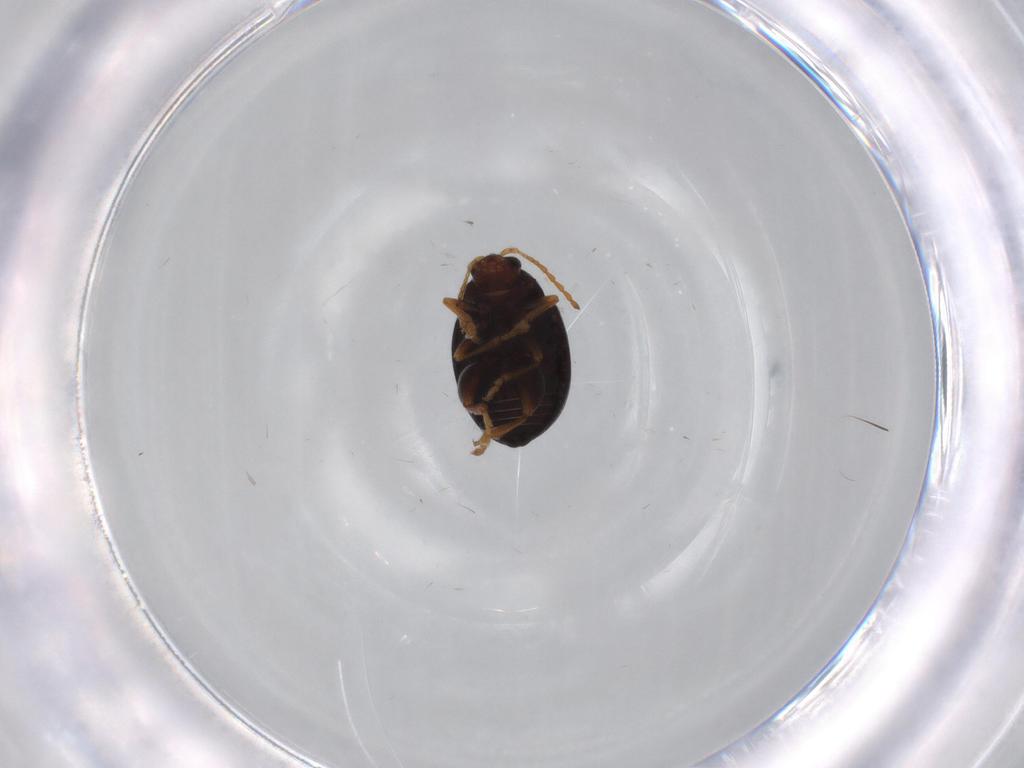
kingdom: Animalia
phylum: Arthropoda
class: Insecta
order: Coleoptera
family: Chrysomelidae
